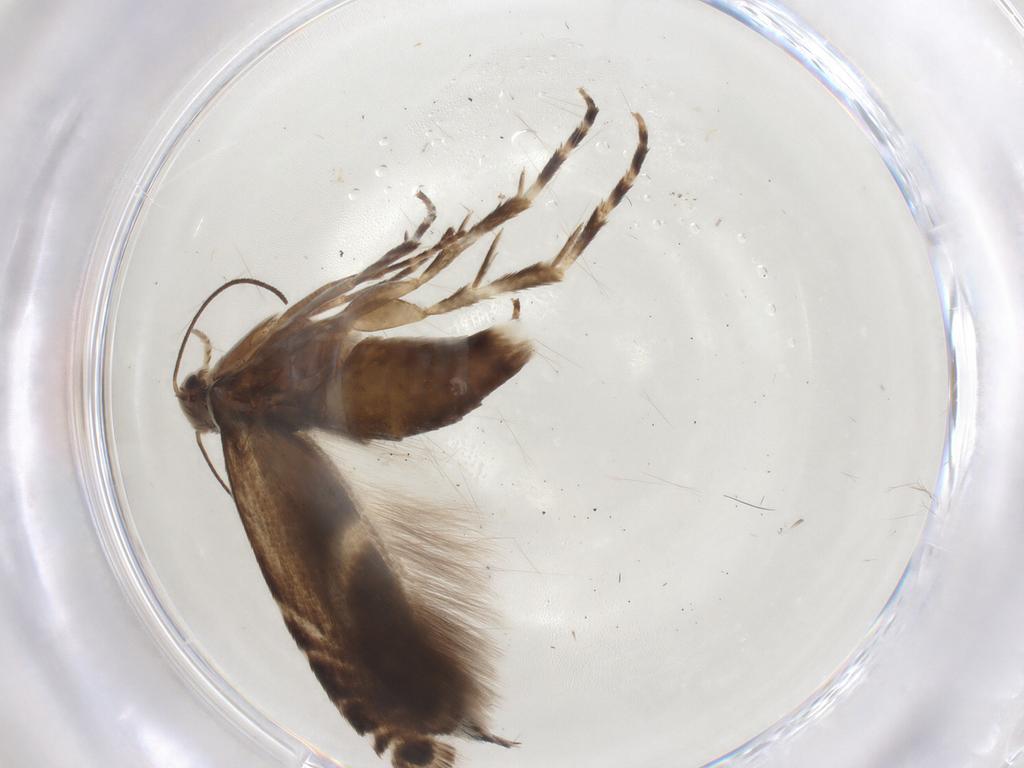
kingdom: Animalia
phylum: Arthropoda
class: Insecta
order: Lepidoptera
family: Glyphipterigidae
